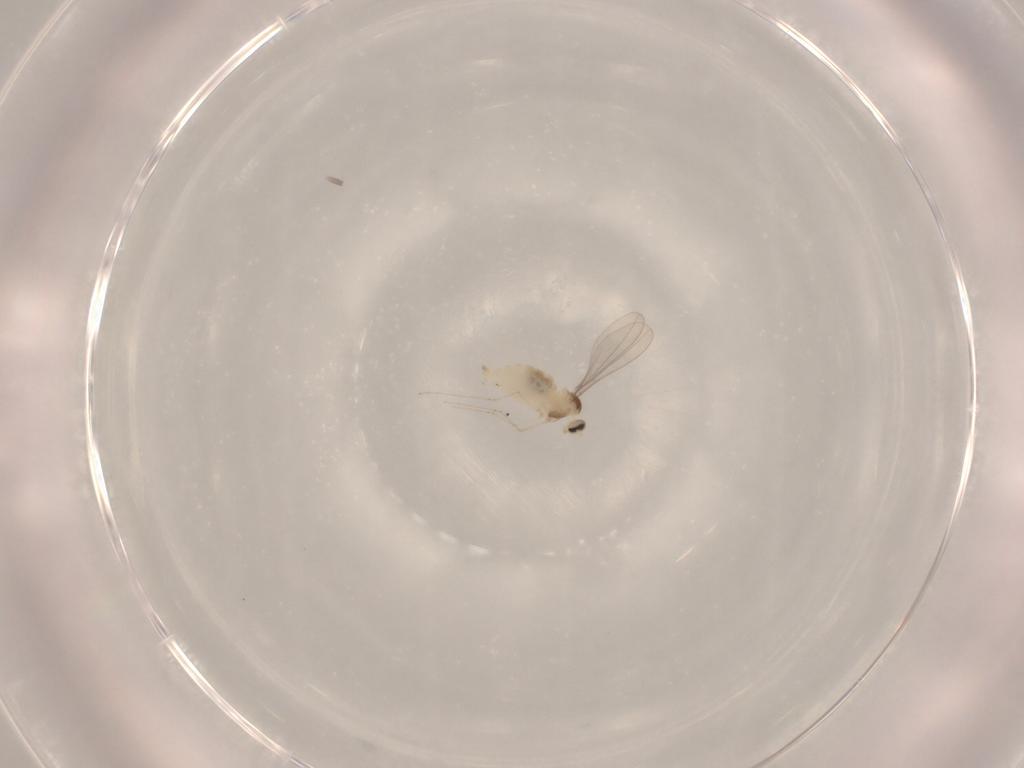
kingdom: Animalia
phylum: Arthropoda
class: Insecta
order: Diptera
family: Cecidomyiidae
